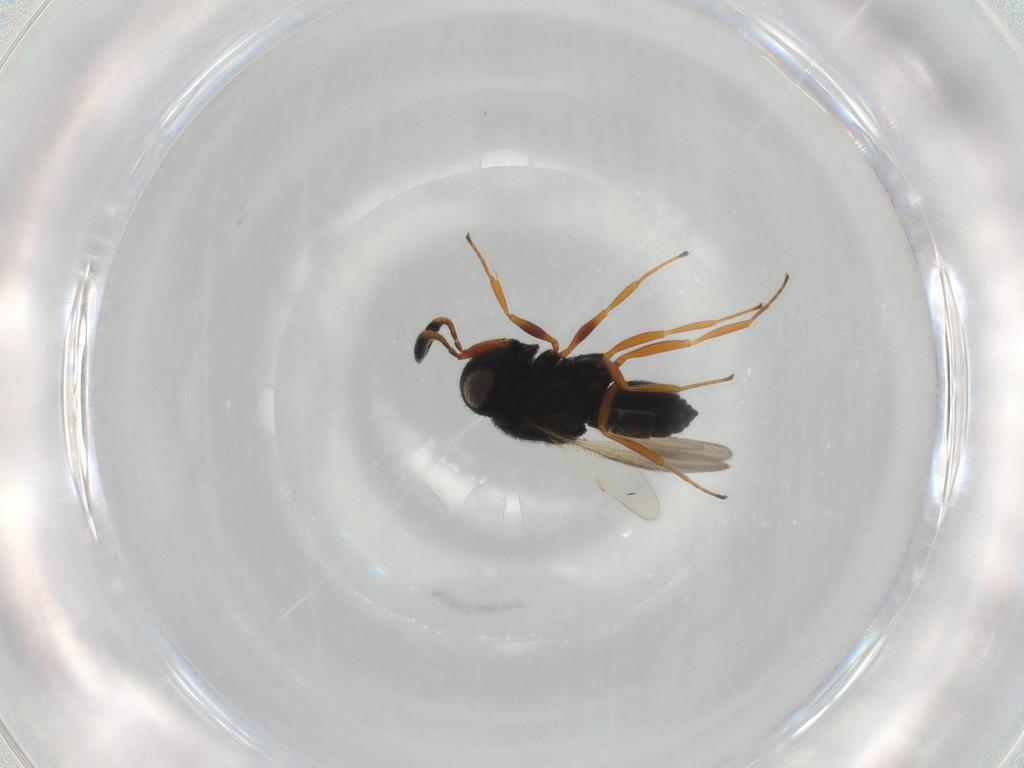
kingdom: Animalia
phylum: Arthropoda
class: Insecta
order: Hymenoptera
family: Scelionidae
